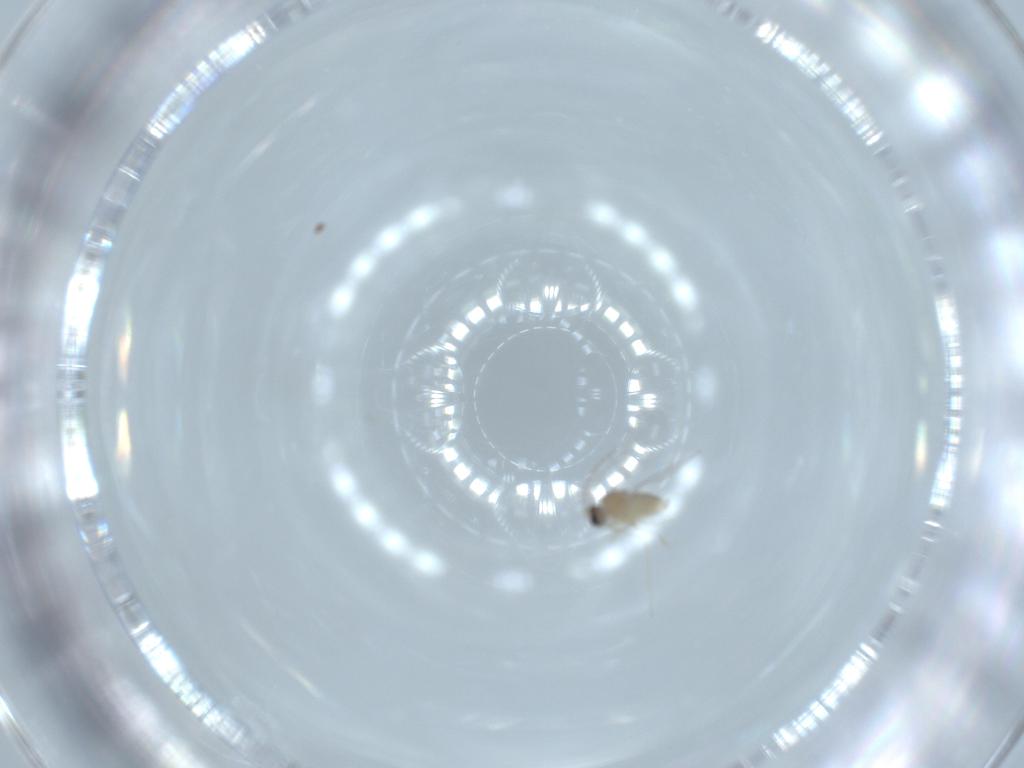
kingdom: Animalia
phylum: Arthropoda
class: Insecta
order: Diptera
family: Cecidomyiidae
